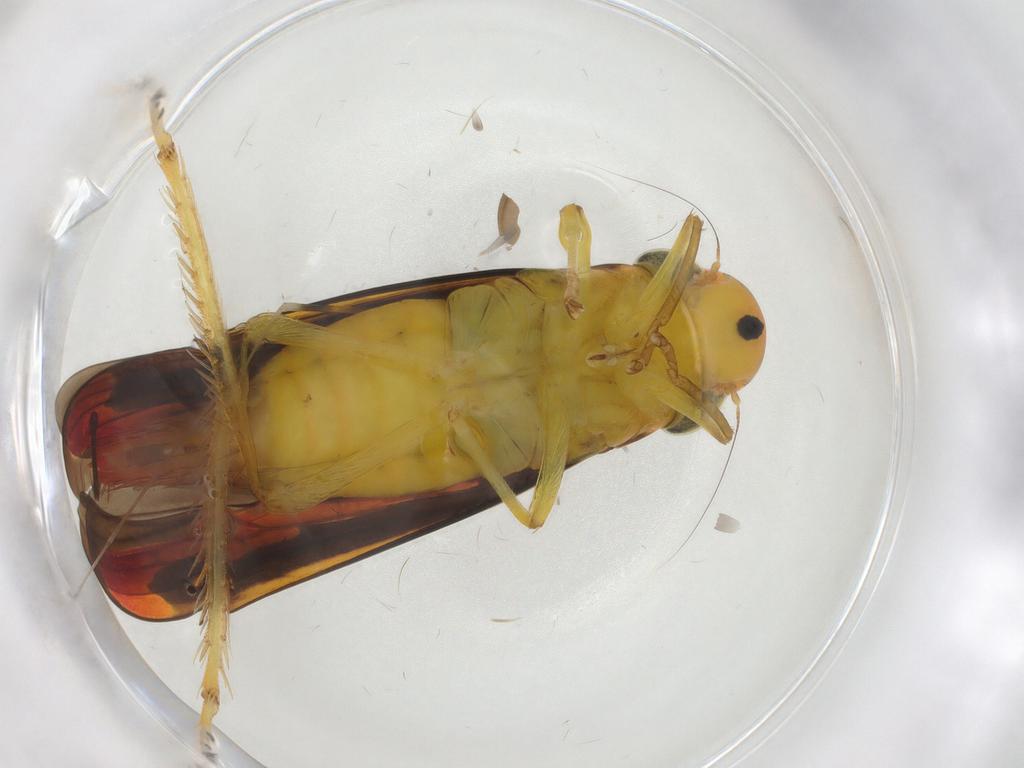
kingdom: Animalia
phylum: Arthropoda
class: Insecta
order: Hemiptera
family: Cicadellidae
